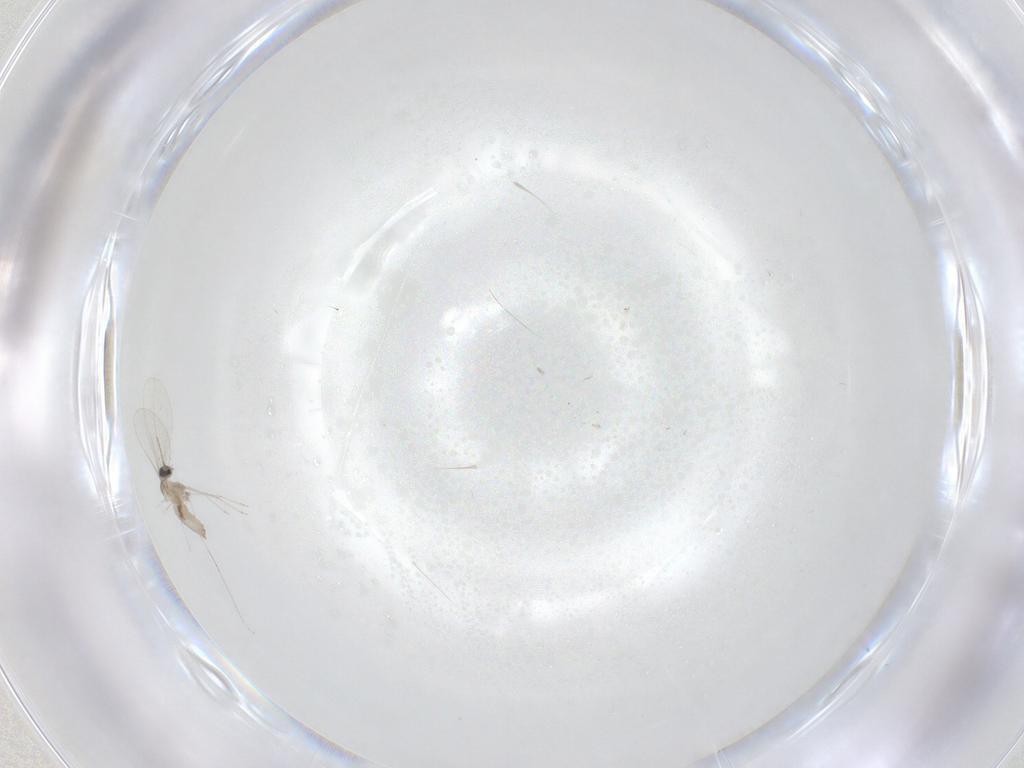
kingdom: Animalia
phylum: Arthropoda
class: Insecta
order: Diptera
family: Cecidomyiidae
